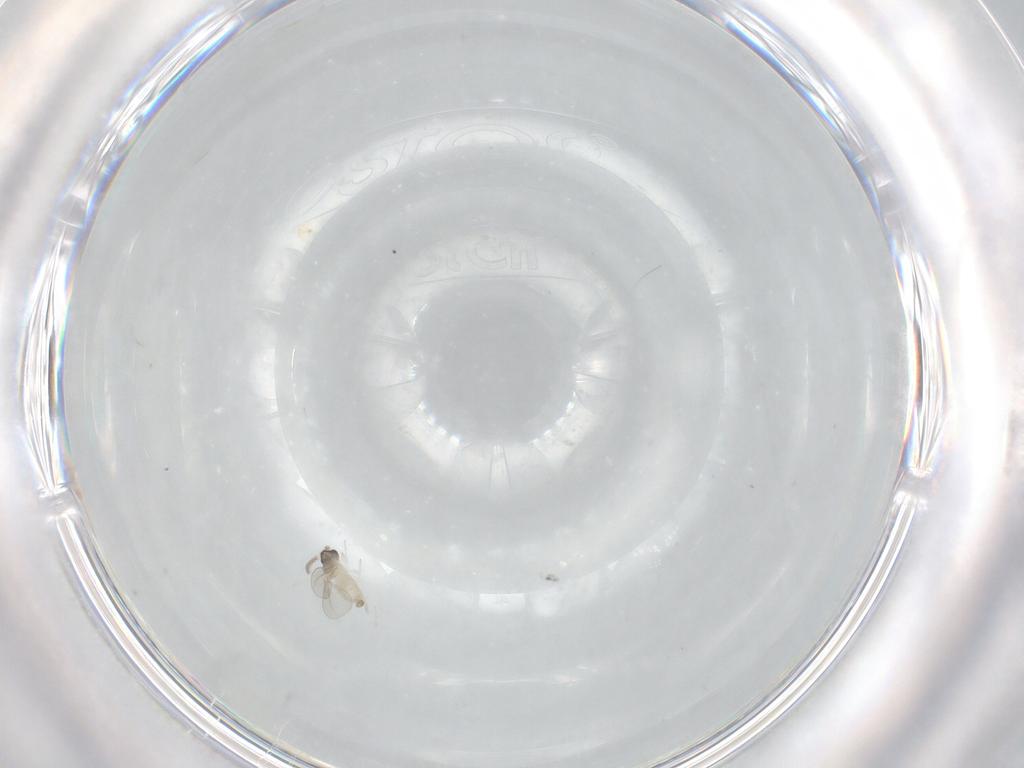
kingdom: Animalia
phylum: Arthropoda
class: Insecta
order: Diptera
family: Cecidomyiidae
